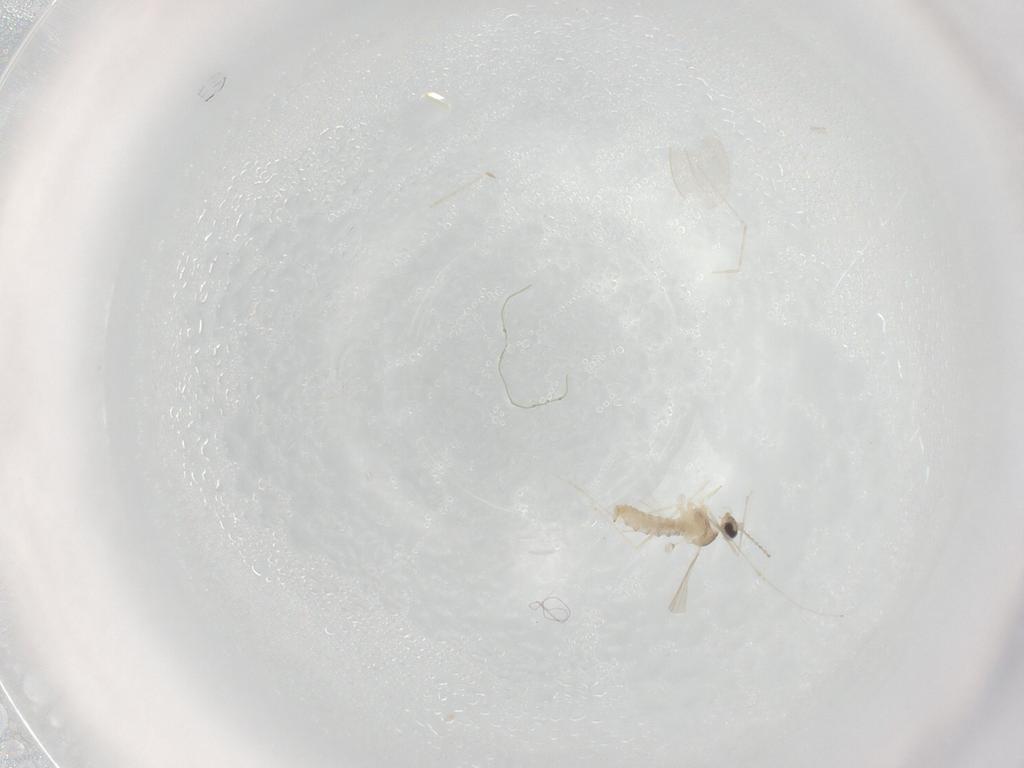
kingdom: Animalia
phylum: Arthropoda
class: Insecta
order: Diptera
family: Cecidomyiidae
